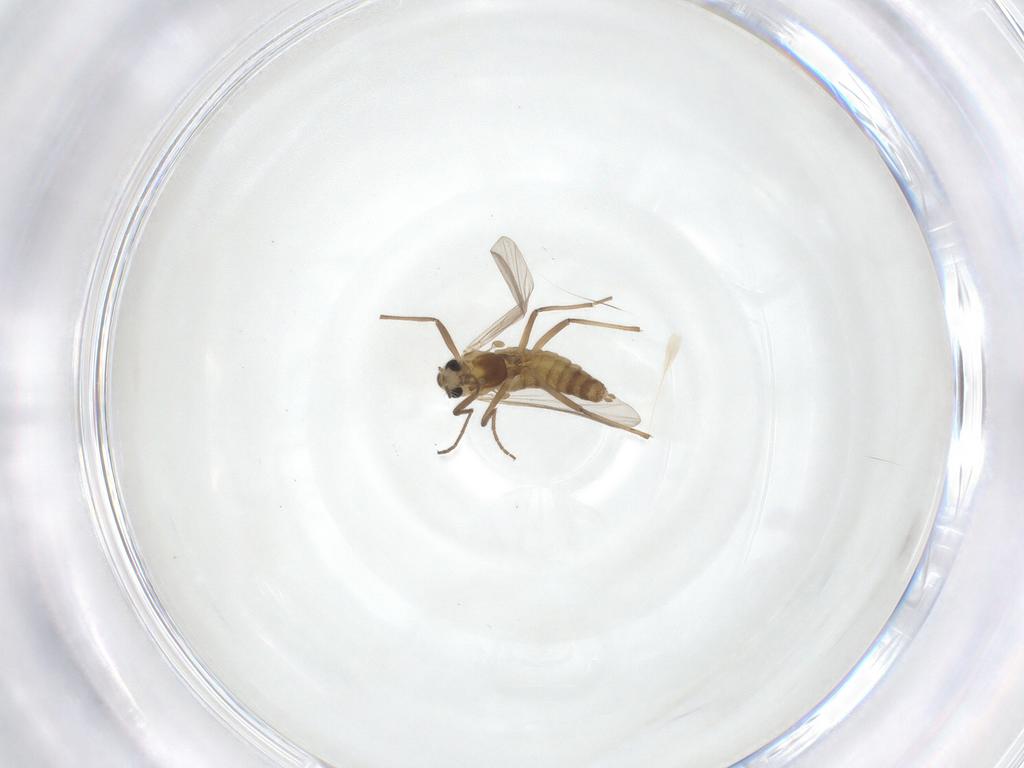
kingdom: Animalia
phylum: Arthropoda
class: Insecta
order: Diptera
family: Chironomidae
